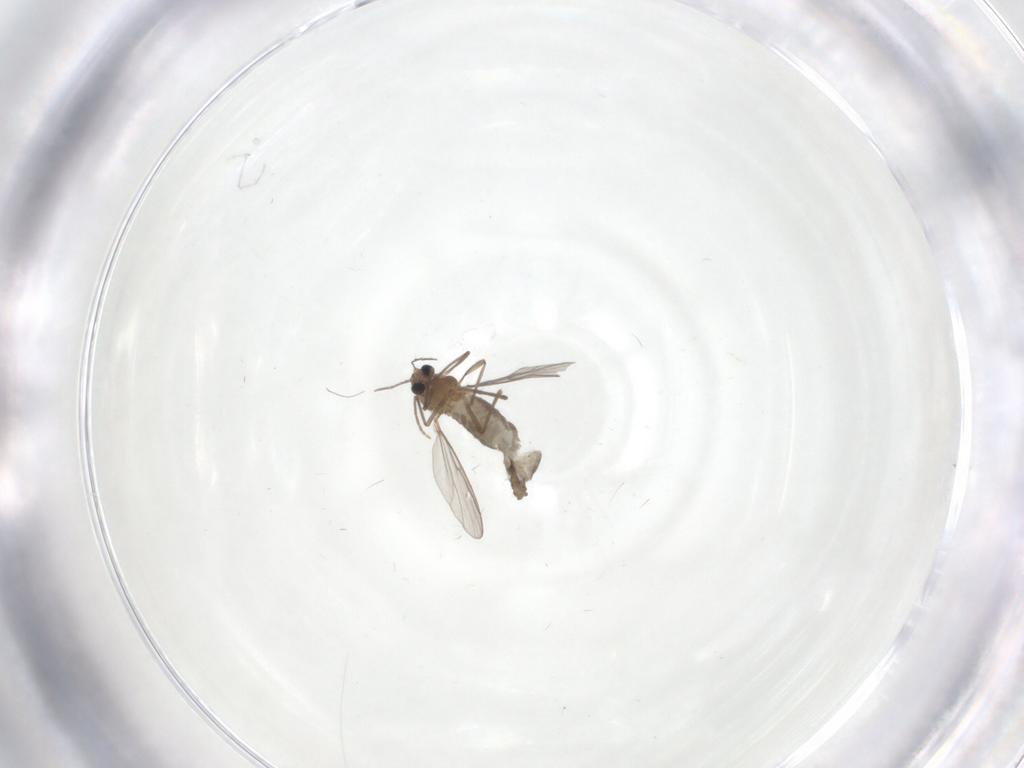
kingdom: Animalia
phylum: Arthropoda
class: Insecta
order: Diptera
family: Chironomidae
